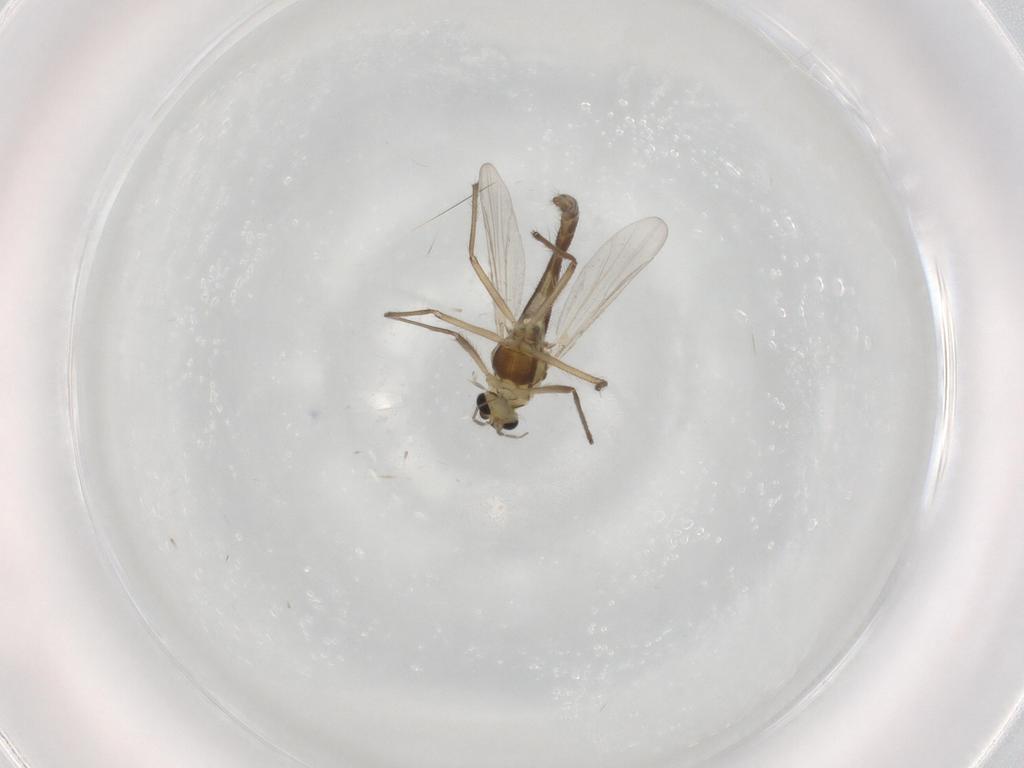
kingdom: Animalia
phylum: Arthropoda
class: Insecta
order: Diptera
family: Chironomidae
